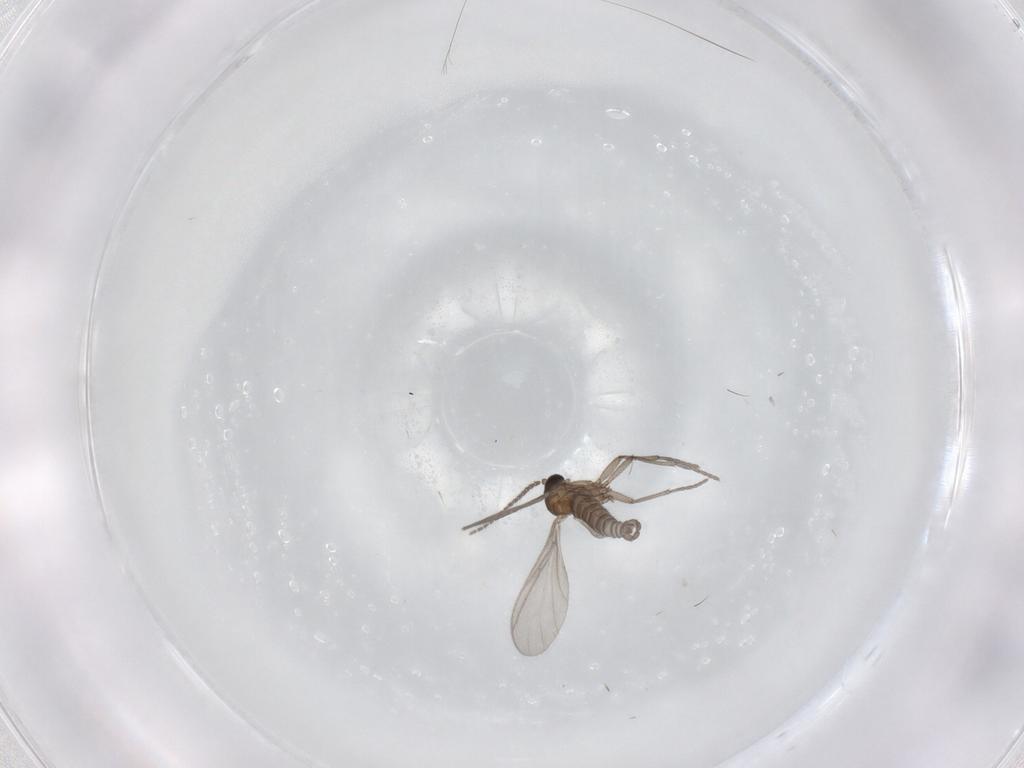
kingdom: Animalia
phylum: Arthropoda
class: Insecta
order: Diptera
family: Sciaridae
